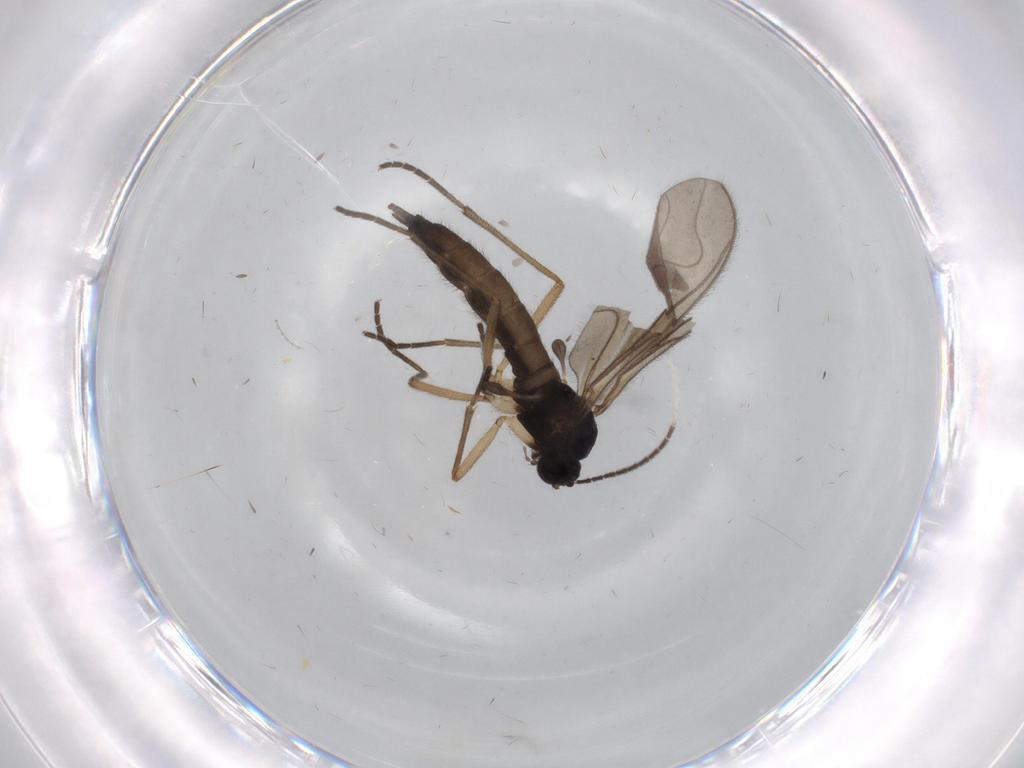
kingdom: Animalia
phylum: Arthropoda
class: Insecta
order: Diptera
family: Sciaridae
